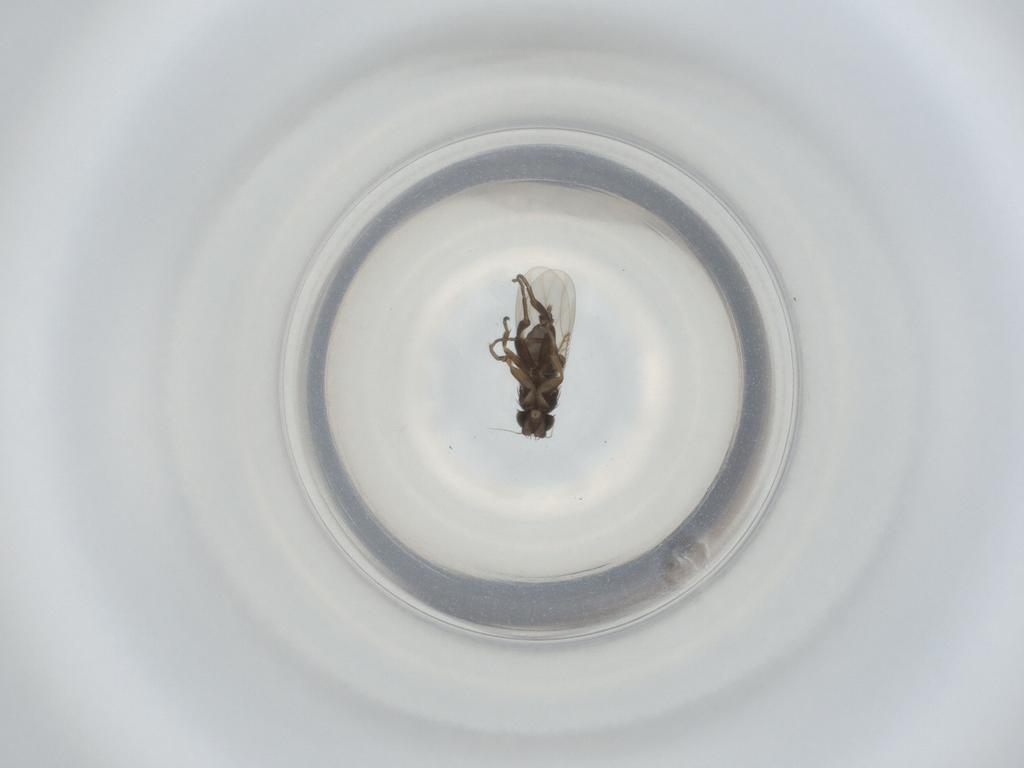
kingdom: Animalia
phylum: Arthropoda
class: Insecta
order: Diptera
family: Phoridae
